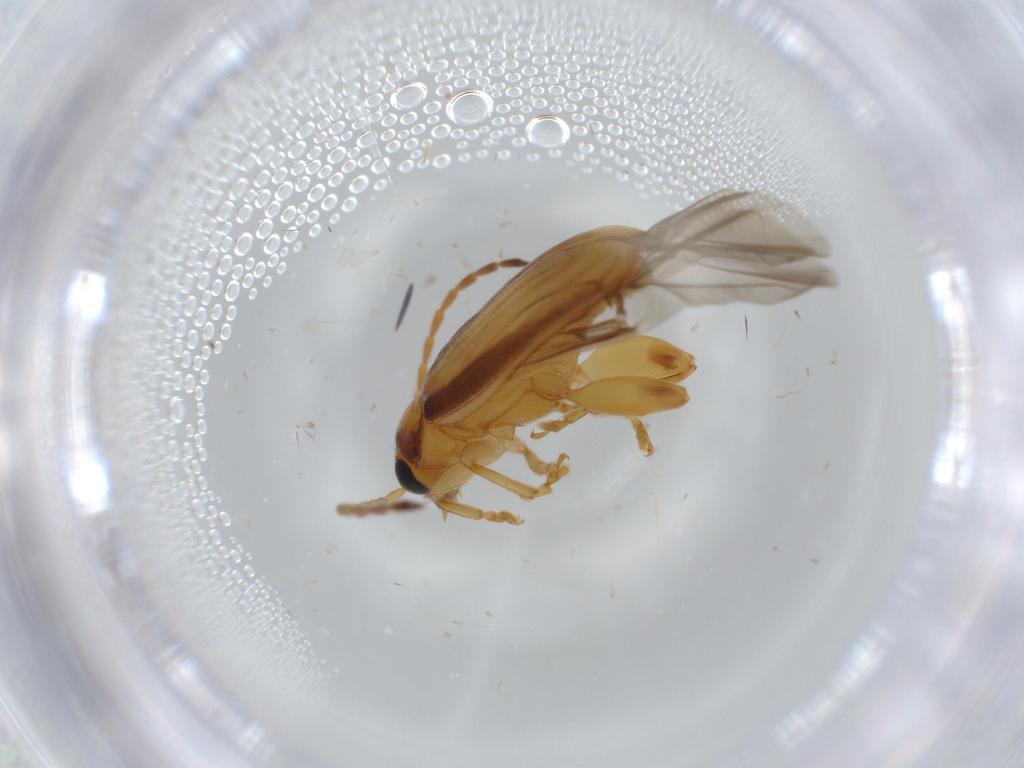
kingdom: Animalia
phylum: Arthropoda
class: Insecta
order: Coleoptera
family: Chrysomelidae
